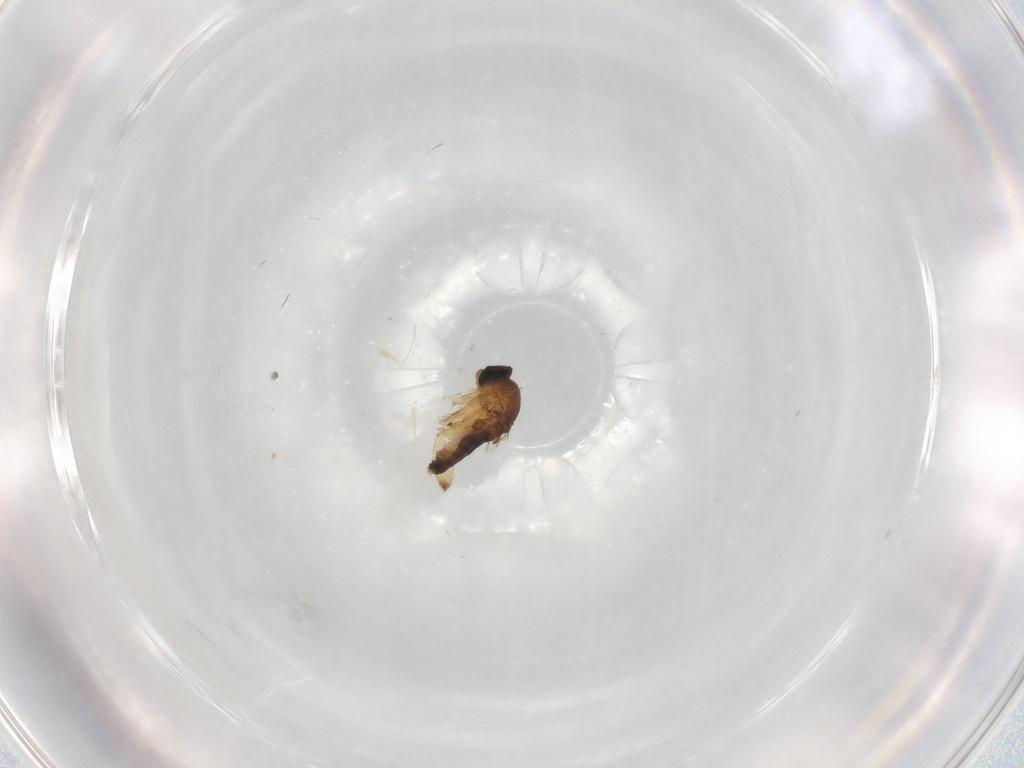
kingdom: Animalia
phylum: Arthropoda
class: Insecta
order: Diptera
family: Phoridae
